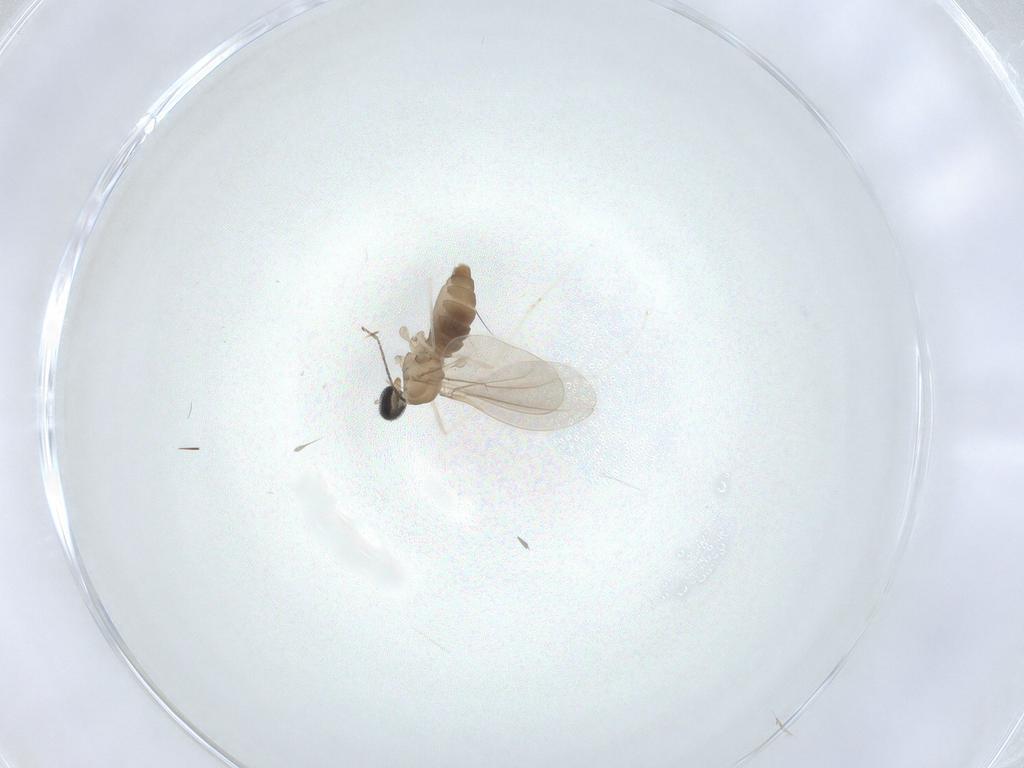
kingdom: Animalia
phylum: Arthropoda
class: Insecta
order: Diptera
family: Cecidomyiidae
